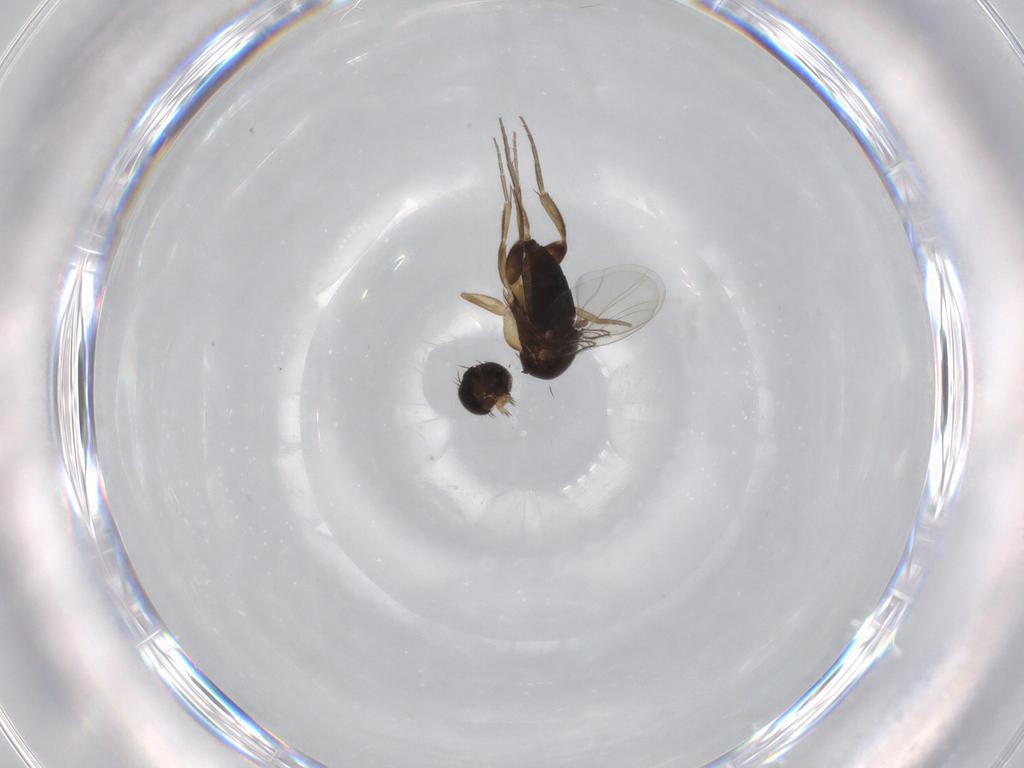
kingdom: Animalia
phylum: Arthropoda
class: Insecta
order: Diptera
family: Phoridae
